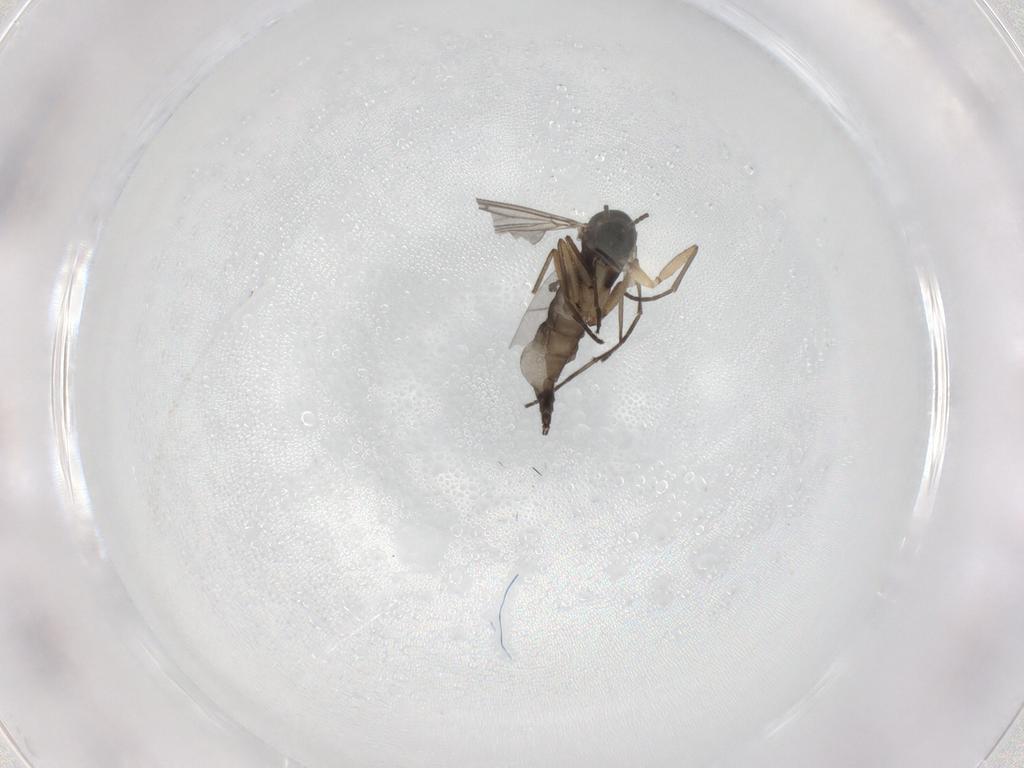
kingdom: Animalia
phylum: Arthropoda
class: Insecta
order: Diptera
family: Sciaridae
